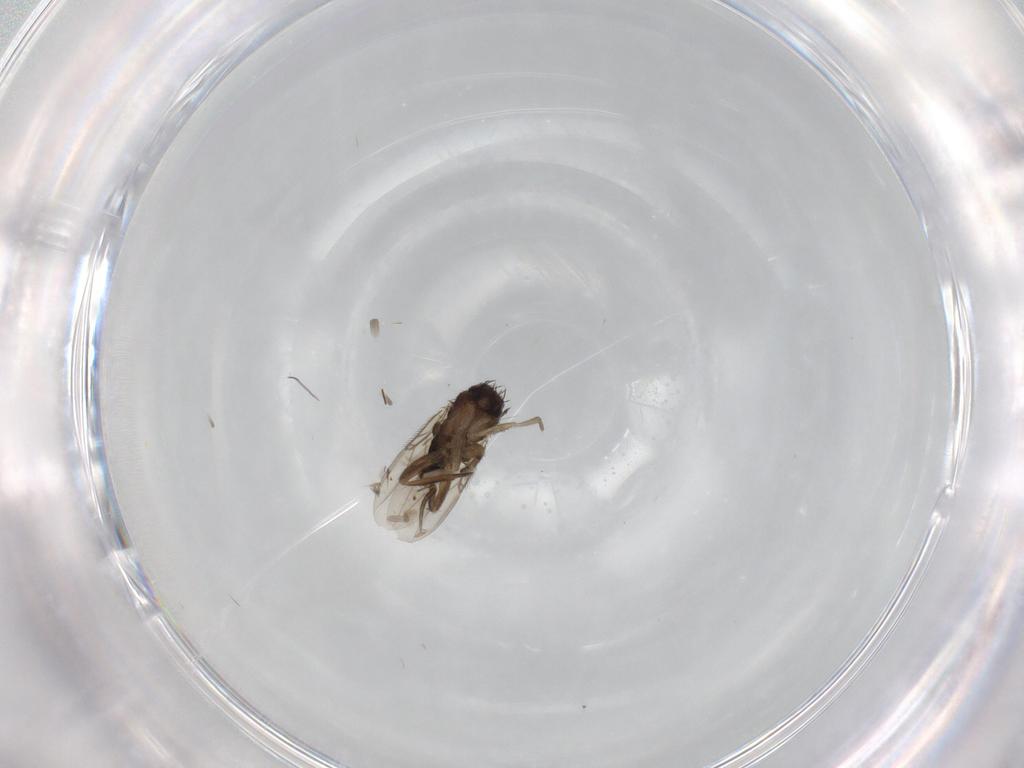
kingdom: Animalia
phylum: Arthropoda
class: Insecta
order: Diptera
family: Phoridae
